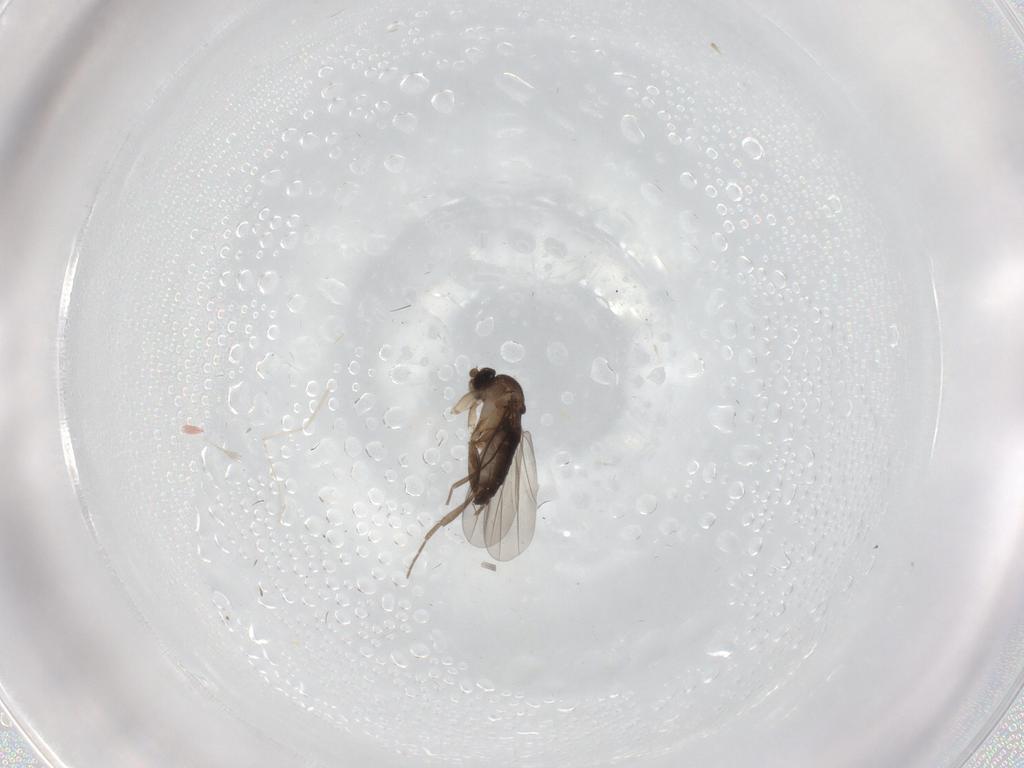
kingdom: Animalia
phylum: Arthropoda
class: Insecta
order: Diptera
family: Phoridae
